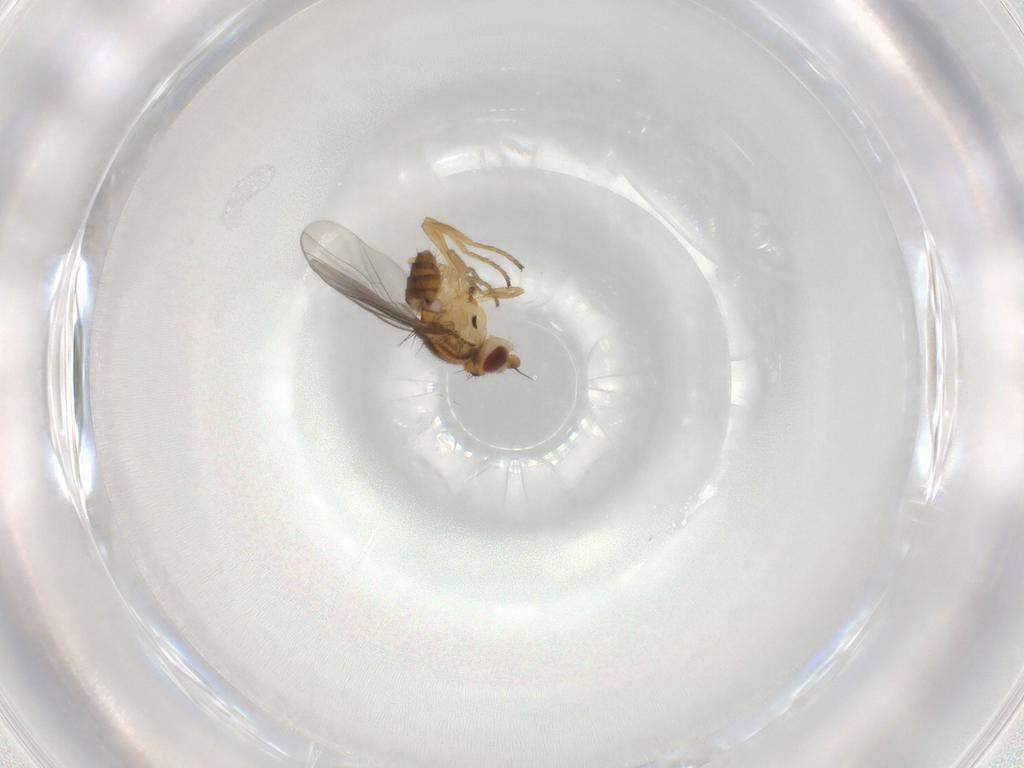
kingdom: Animalia
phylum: Arthropoda
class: Insecta
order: Diptera
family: Chloropidae
